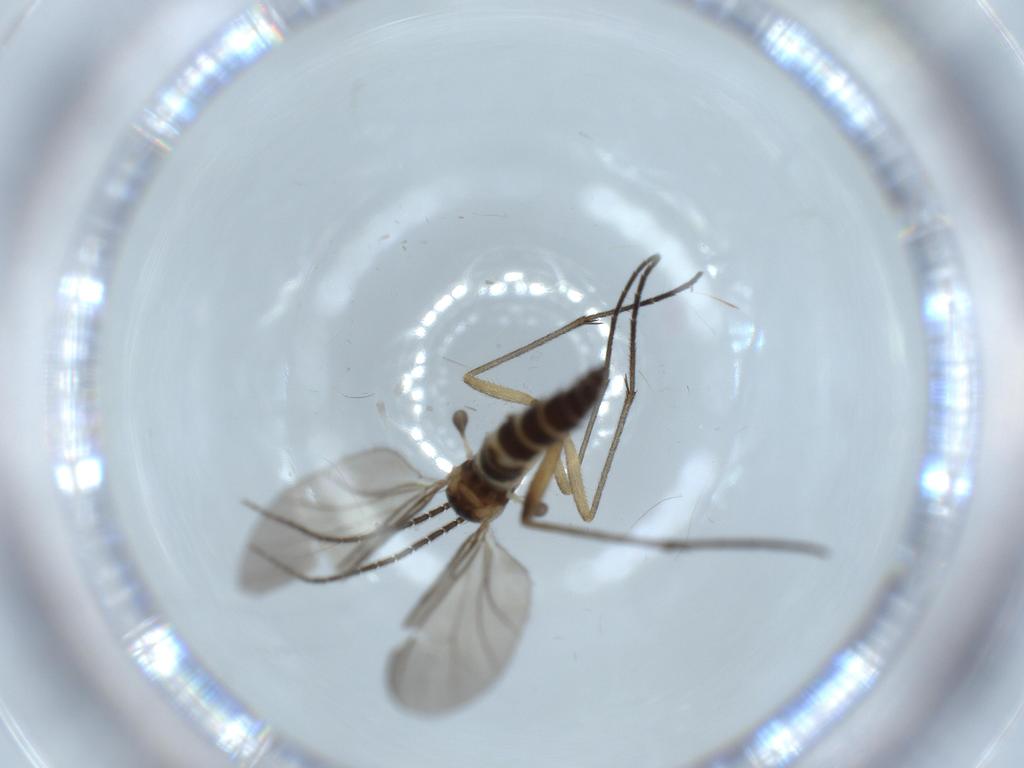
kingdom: Animalia
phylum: Arthropoda
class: Insecta
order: Diptera
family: Sciaridae
